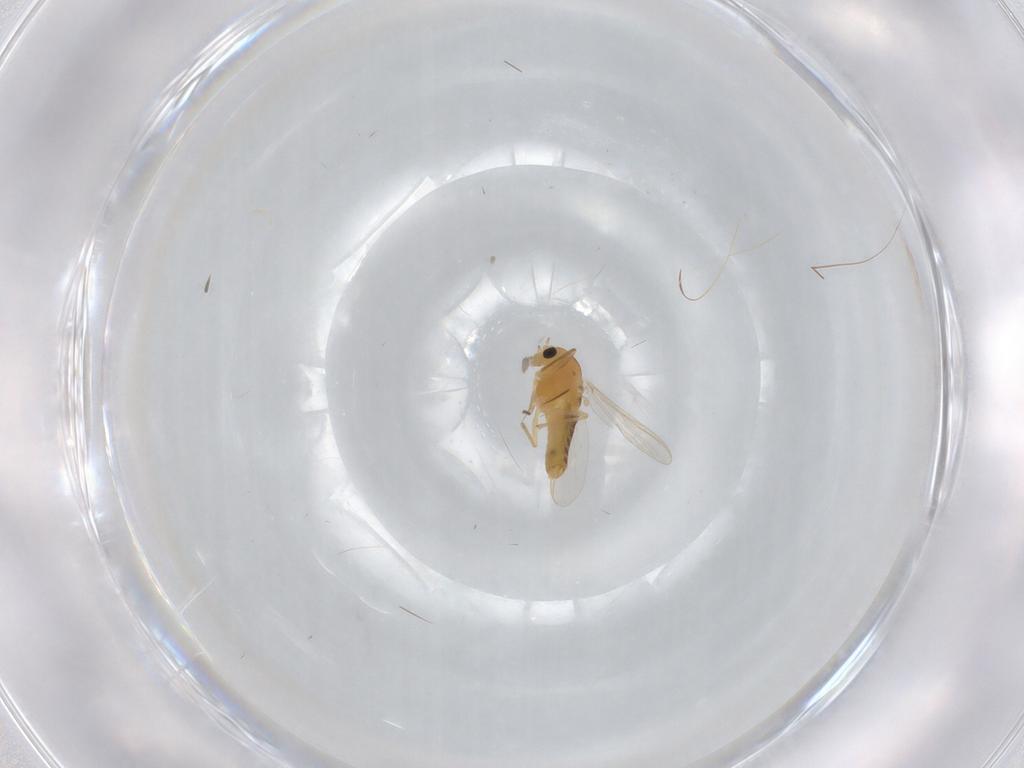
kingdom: Animalia
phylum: Arthropoda
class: Insecta
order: Diptera
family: Chironomidae
